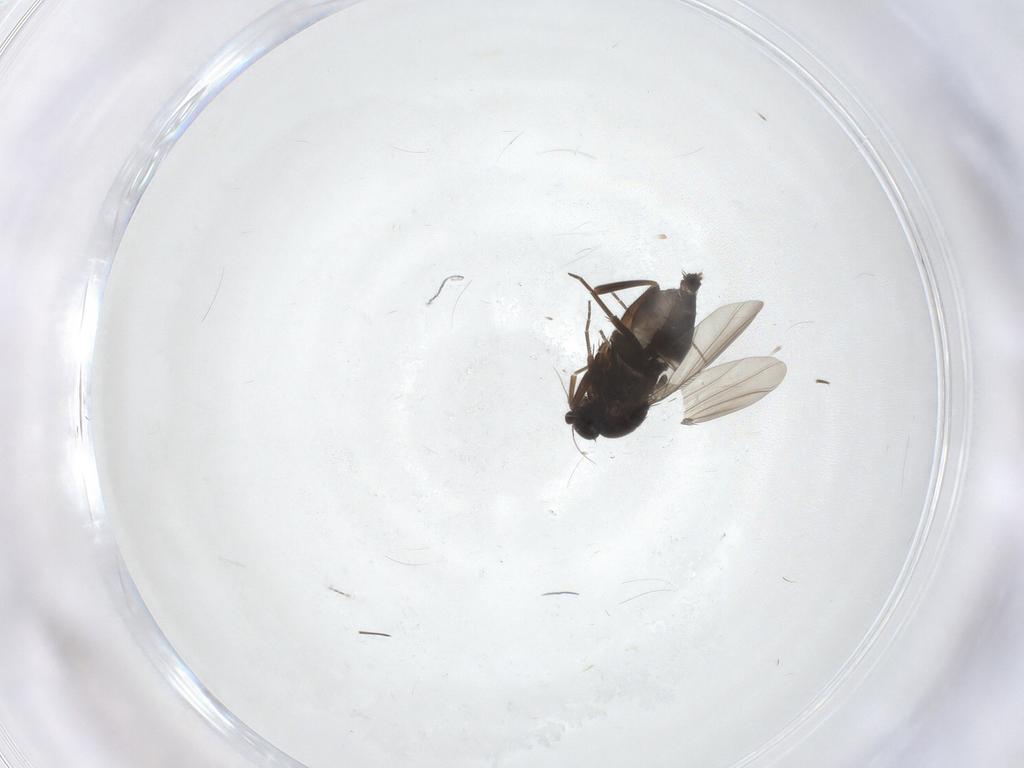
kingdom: Animalia
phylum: Arthropoda
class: Insecta
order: Diptera
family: Phoridae
